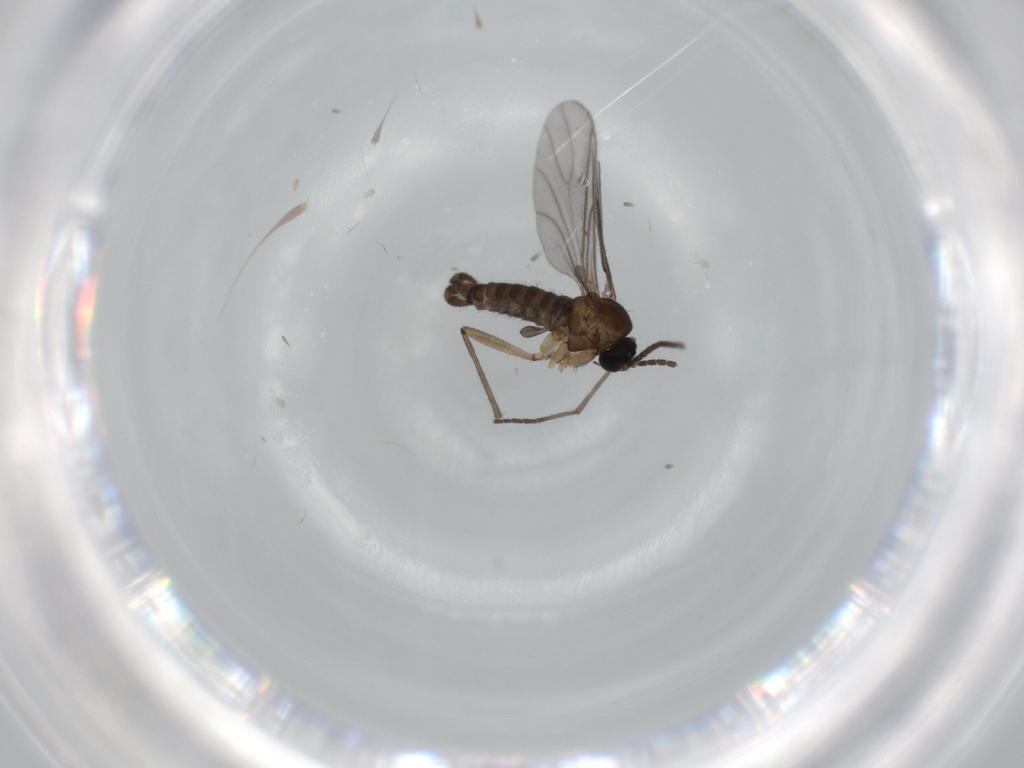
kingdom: Animalia
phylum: Arthropoda
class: Insecta
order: Diptera
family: Sciaridae
